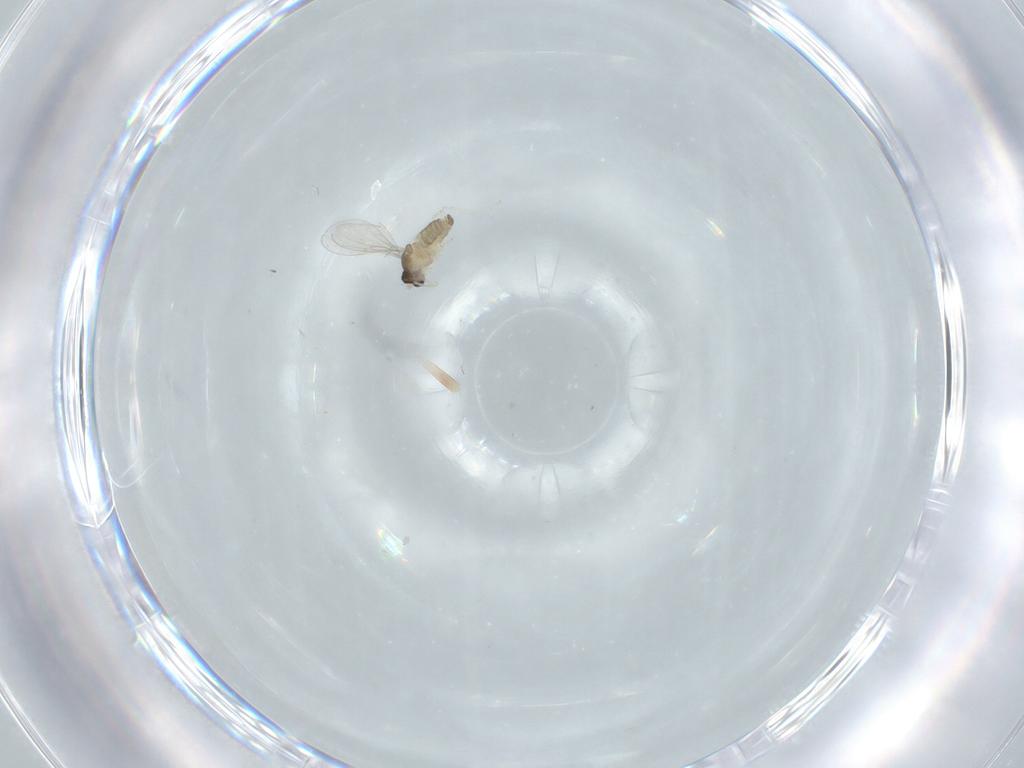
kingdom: Animalia
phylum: Arthropoda
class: Insecta
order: Diptera
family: Cecidomyiidae
